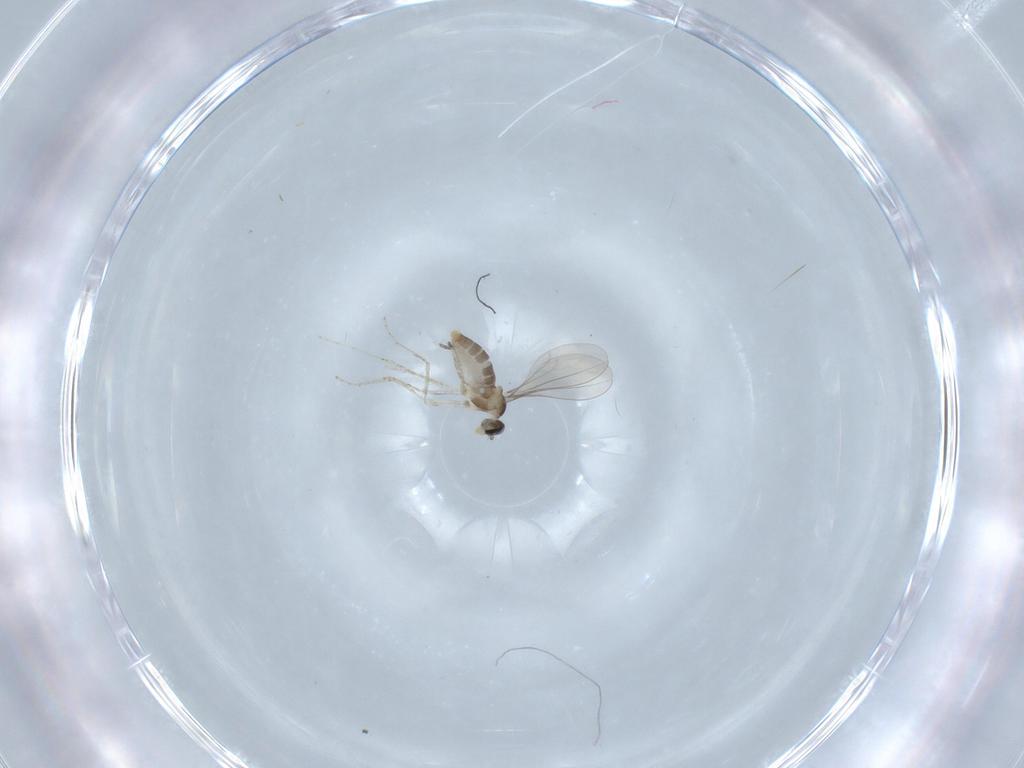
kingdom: Animalia
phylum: Arthropoda
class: Insecta
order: Diptera
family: Cecidomyiidae
